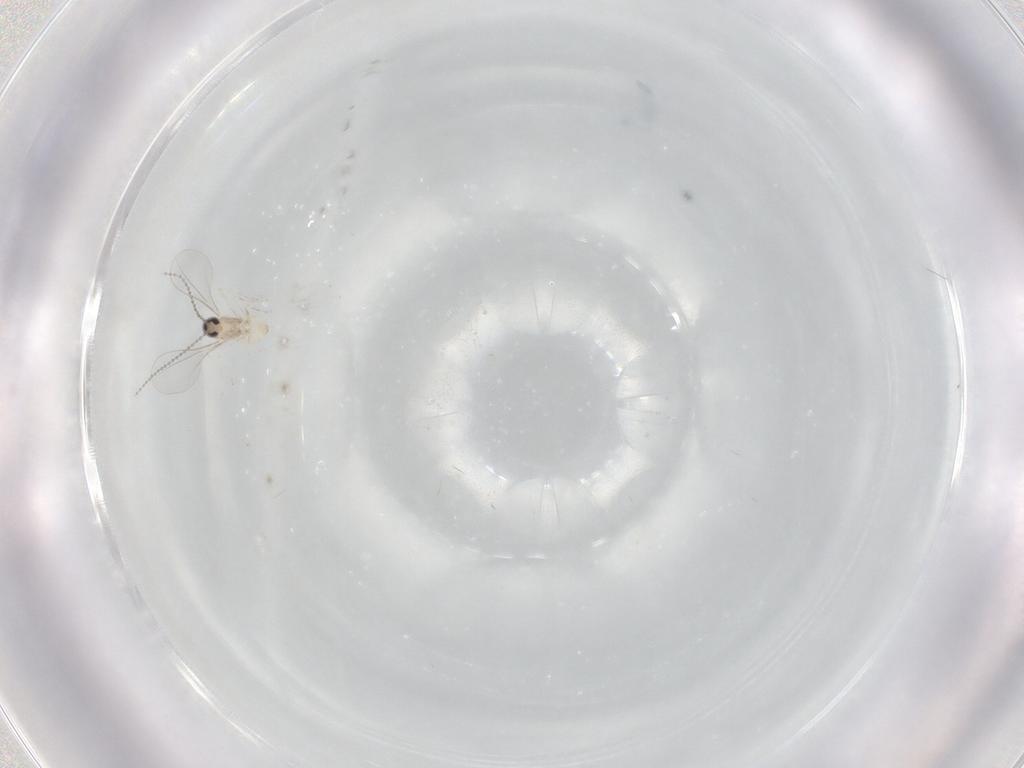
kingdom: Animalia
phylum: Arthropoda
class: Insecta
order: Diptera
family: Cecidomyiidae
